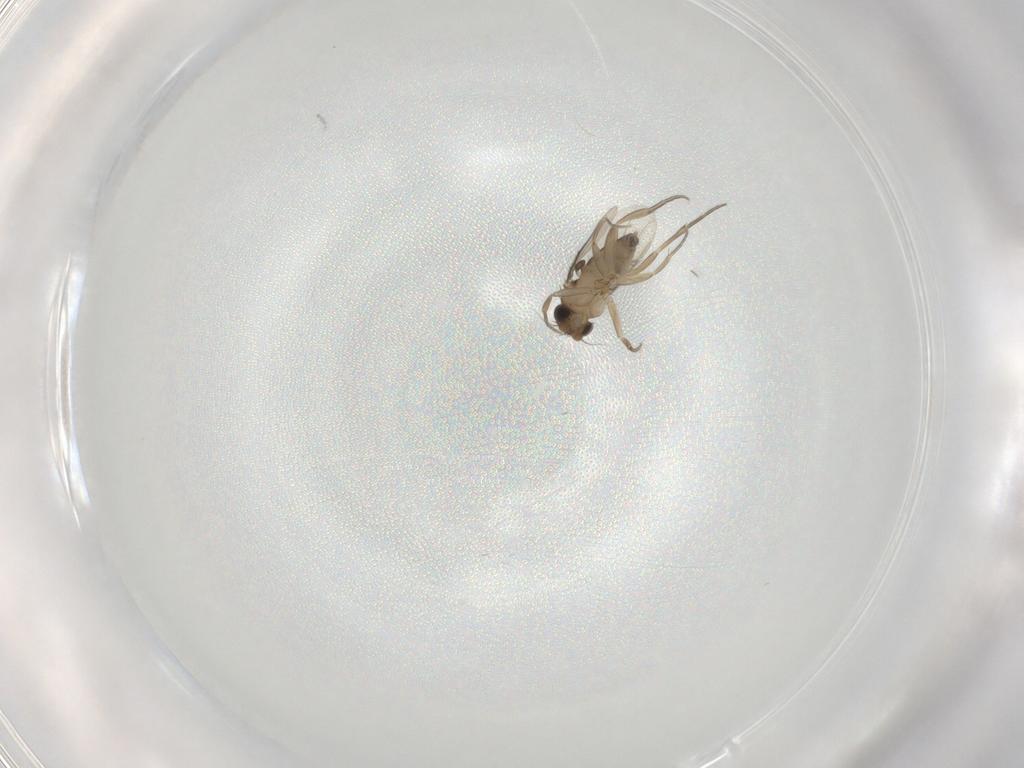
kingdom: Animalia
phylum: Arthropoda
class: Insecta
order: Diptera
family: Phoridae
